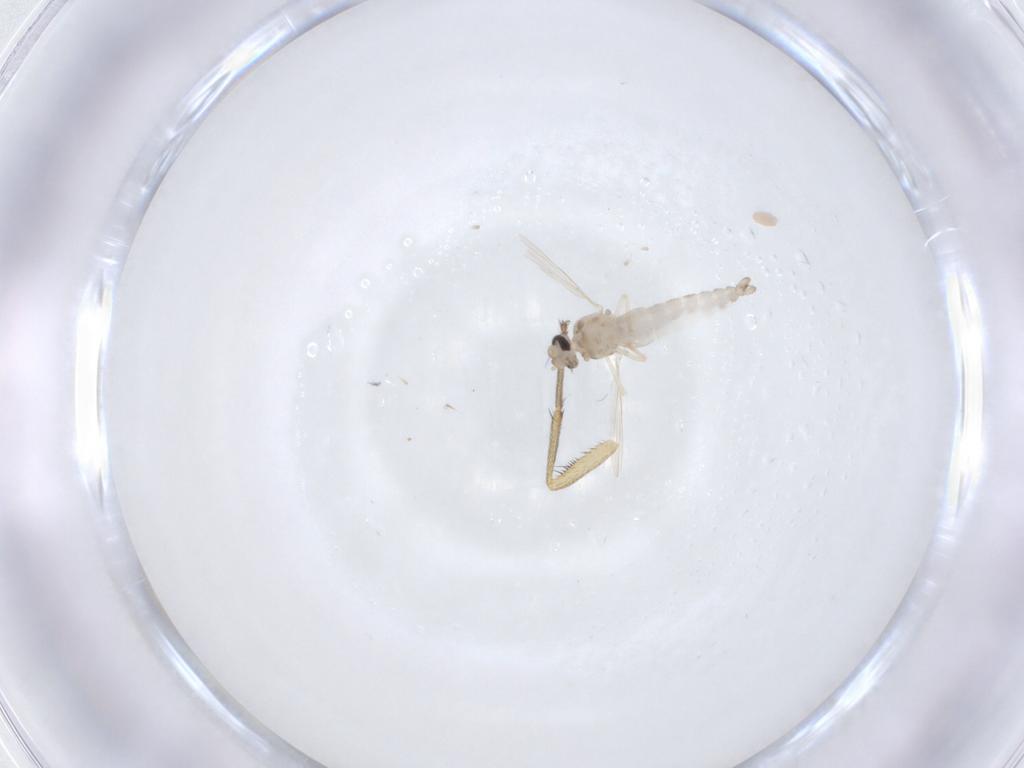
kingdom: Animalia
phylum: Arthropoda
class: Insecta
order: Diptera
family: Ceratopogonidae
